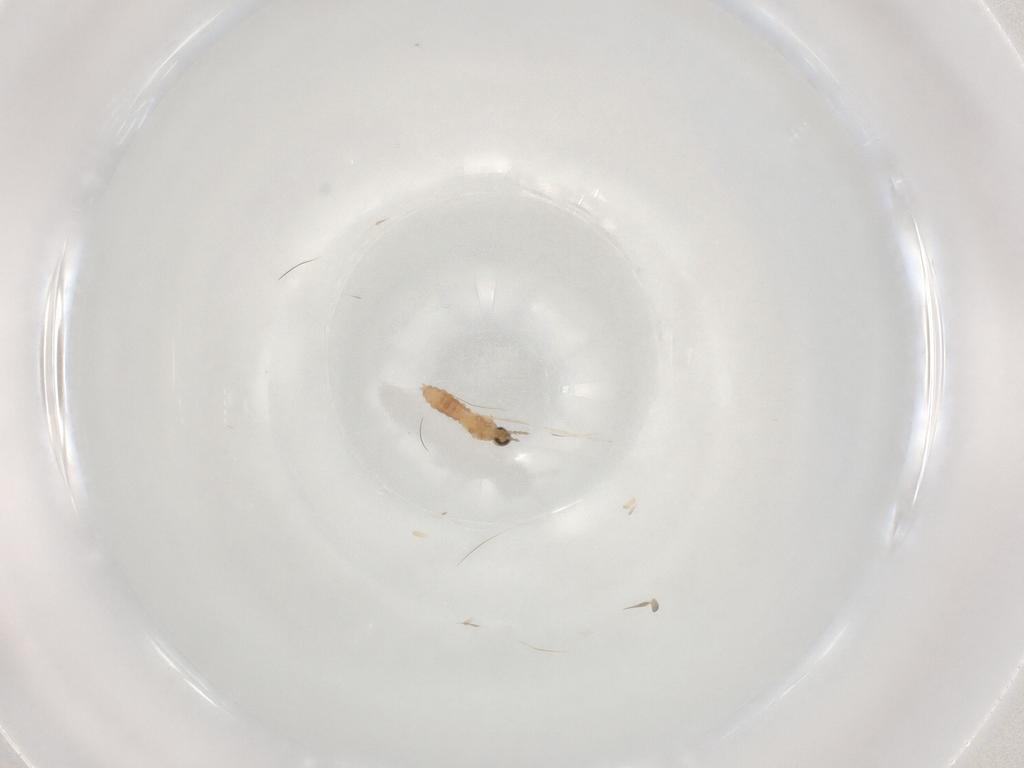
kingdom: Animalia
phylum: Arthropoda
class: Insecta
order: Diptera
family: Cecidomyiidae
